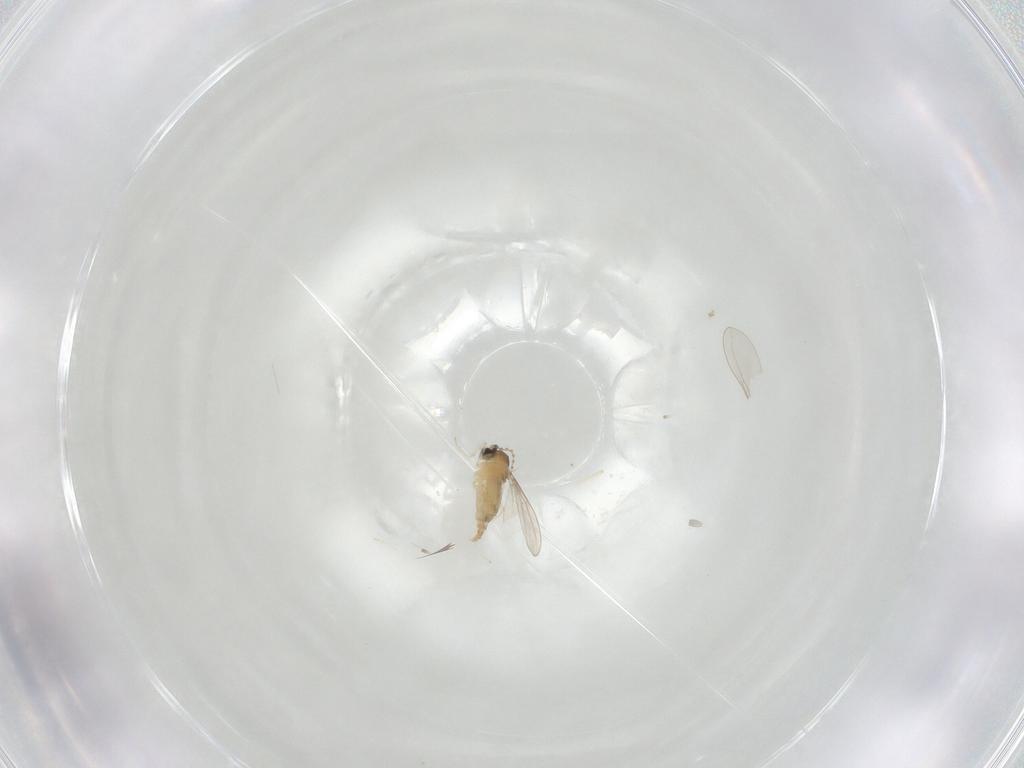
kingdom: Animalia
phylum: Arthropoda
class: Insecta
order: Diptera
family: Cecidomyiidae
